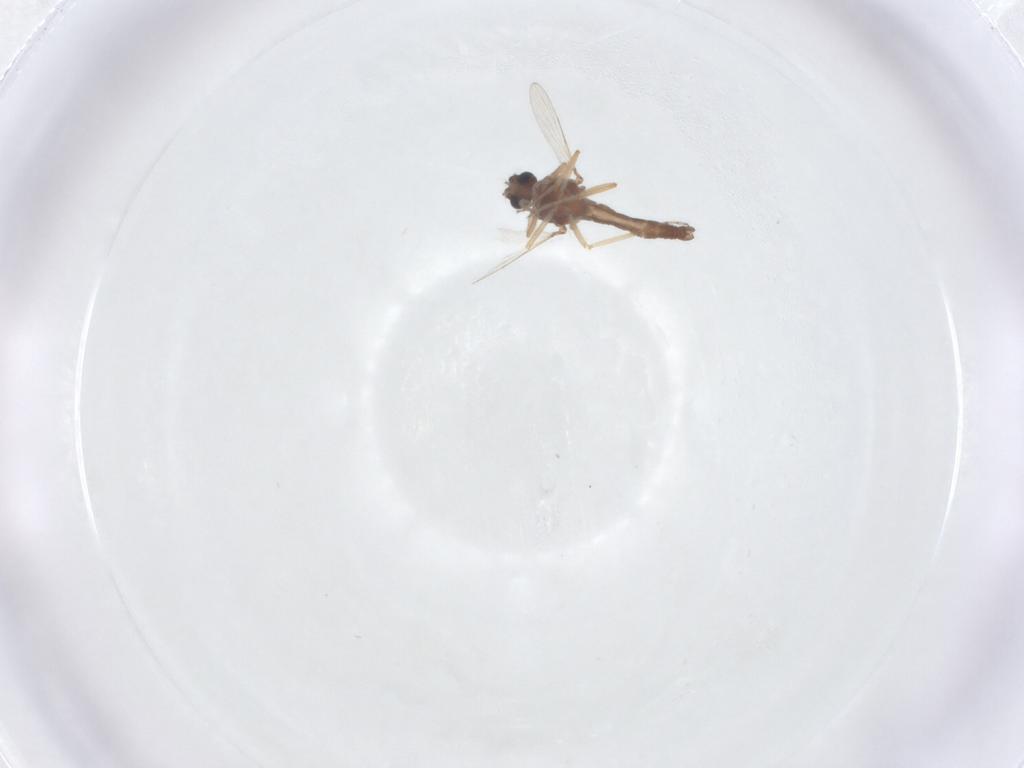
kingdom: Animalia
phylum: Arthropoda
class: Insecta
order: Diptera
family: Ceratopogonidae
